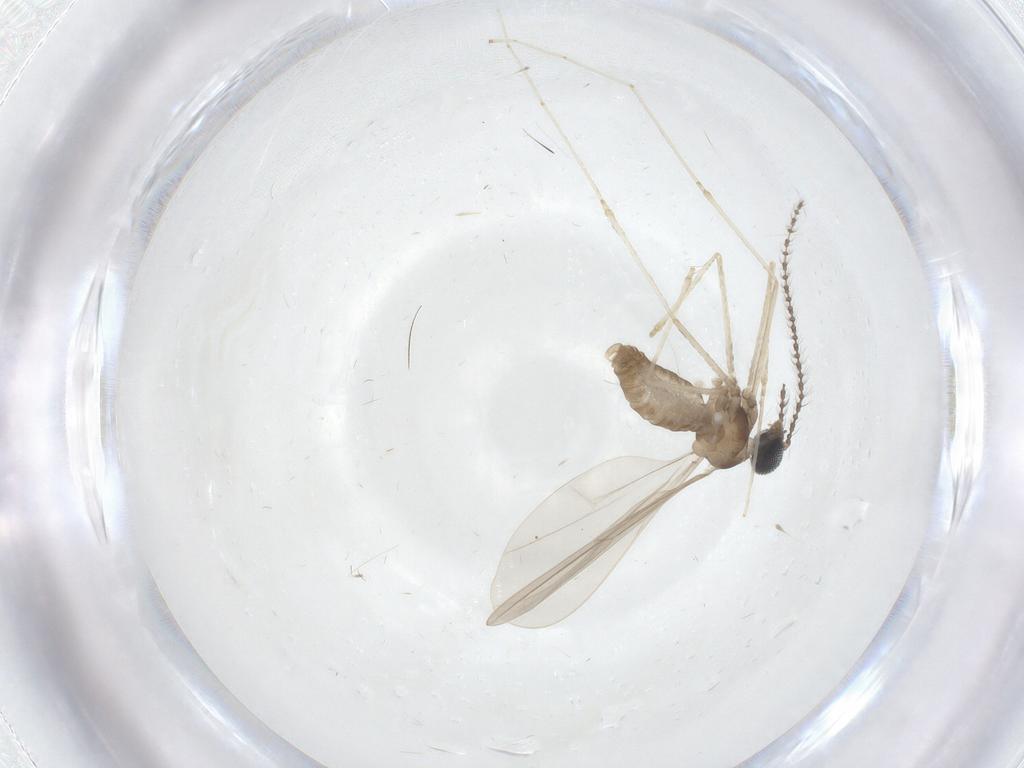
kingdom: Animalia
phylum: Arthropoda
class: Insecta
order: Diptera
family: Cecidomyiidae
